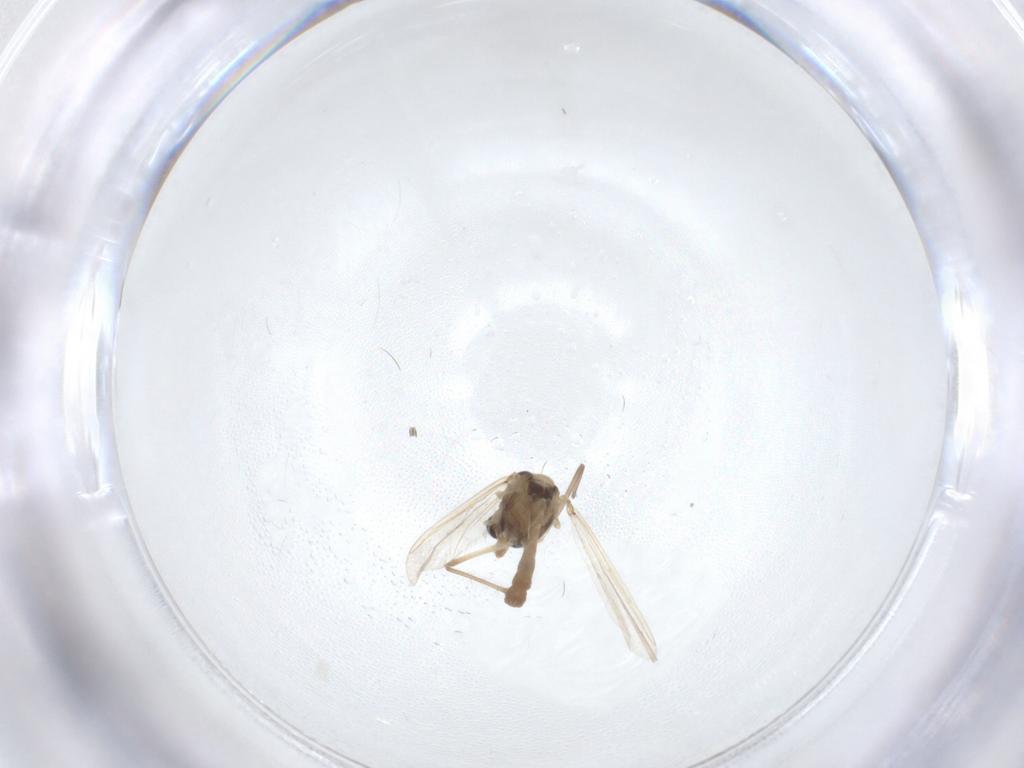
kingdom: Animalia
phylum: Arthropoda
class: Insecta
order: Diptera
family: Chironomidae
